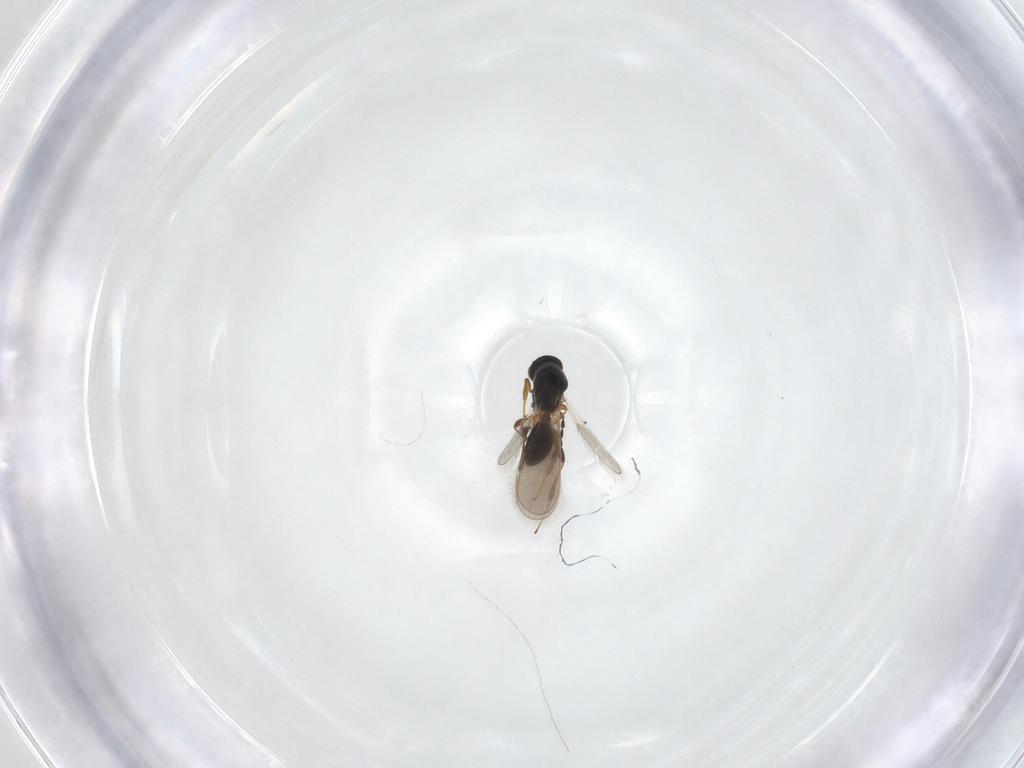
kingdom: Animalia
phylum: Arthropoda
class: Insecta
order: Hymenoptera
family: Platygastridae
